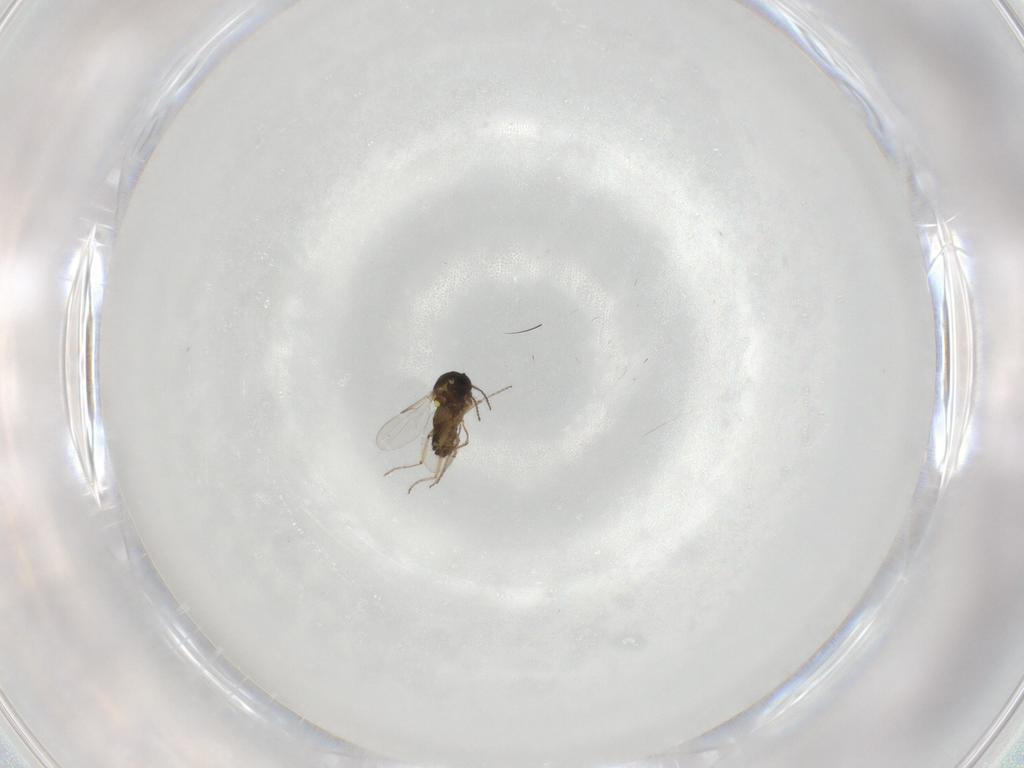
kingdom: Animalia
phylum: Arthropoda
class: Insecta
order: Diptera
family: Ceratopogonidae
